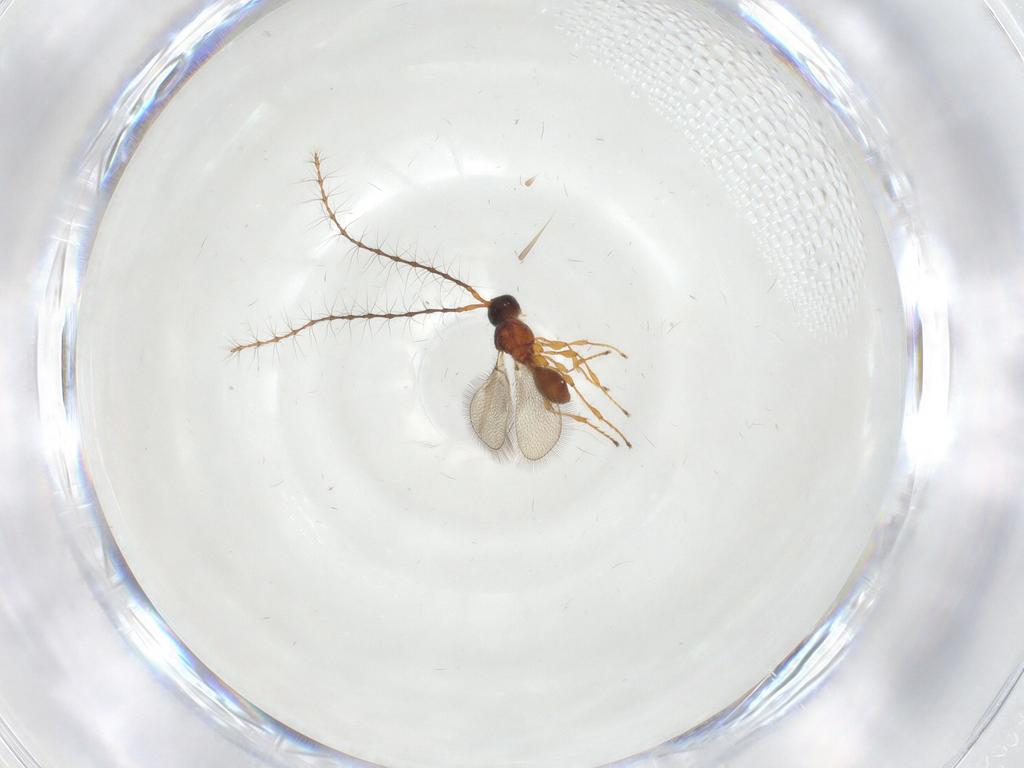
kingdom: Animalia
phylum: Arthropoda
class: Insecta
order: Hymenoptera
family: Diapriidae
